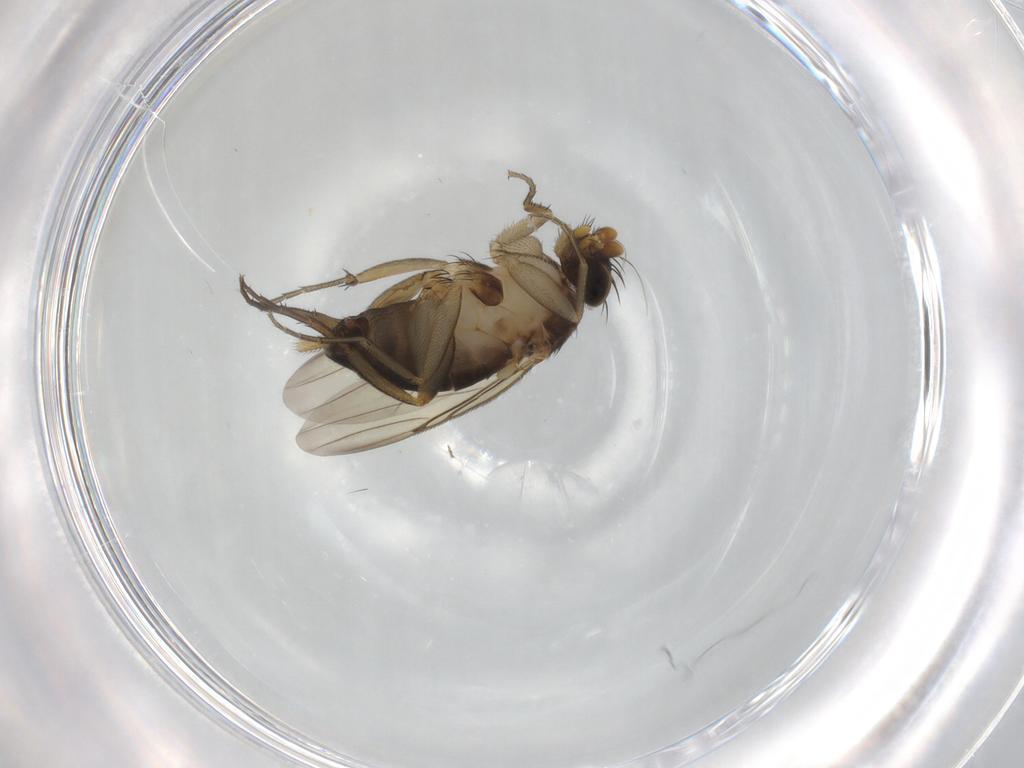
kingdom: Animalia
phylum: Arthropoda
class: Insecta
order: Diptera
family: Phoridae
